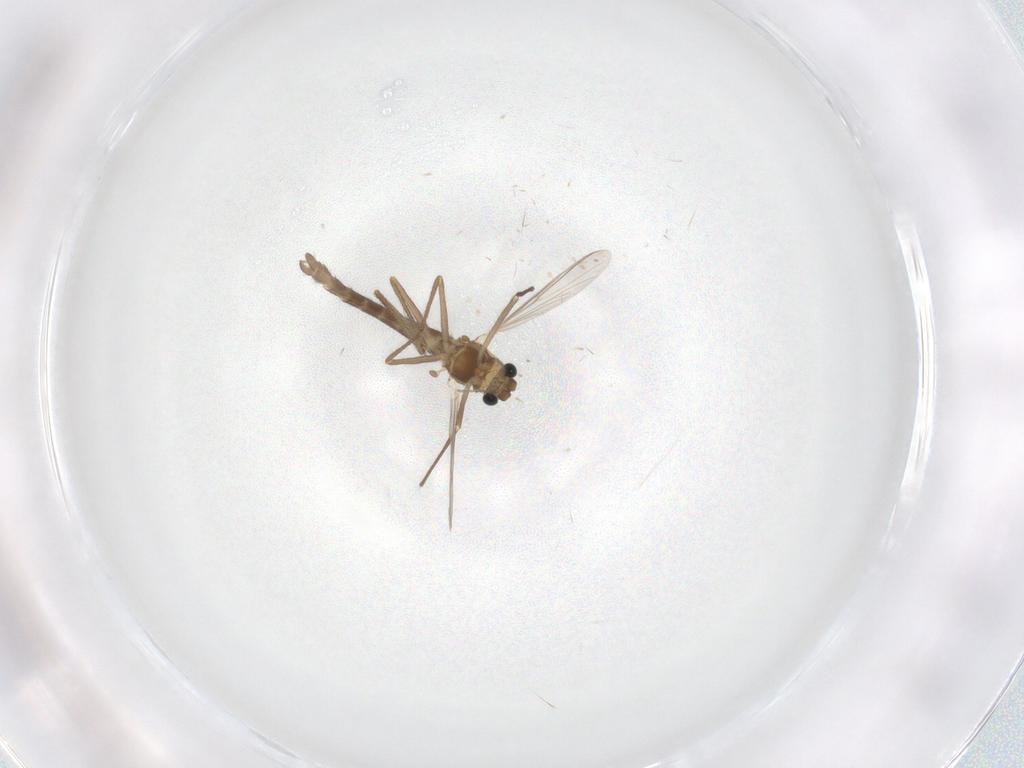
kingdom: Animalia
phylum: Arthropoda
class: Insecta
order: Diptera
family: Chironomidae
